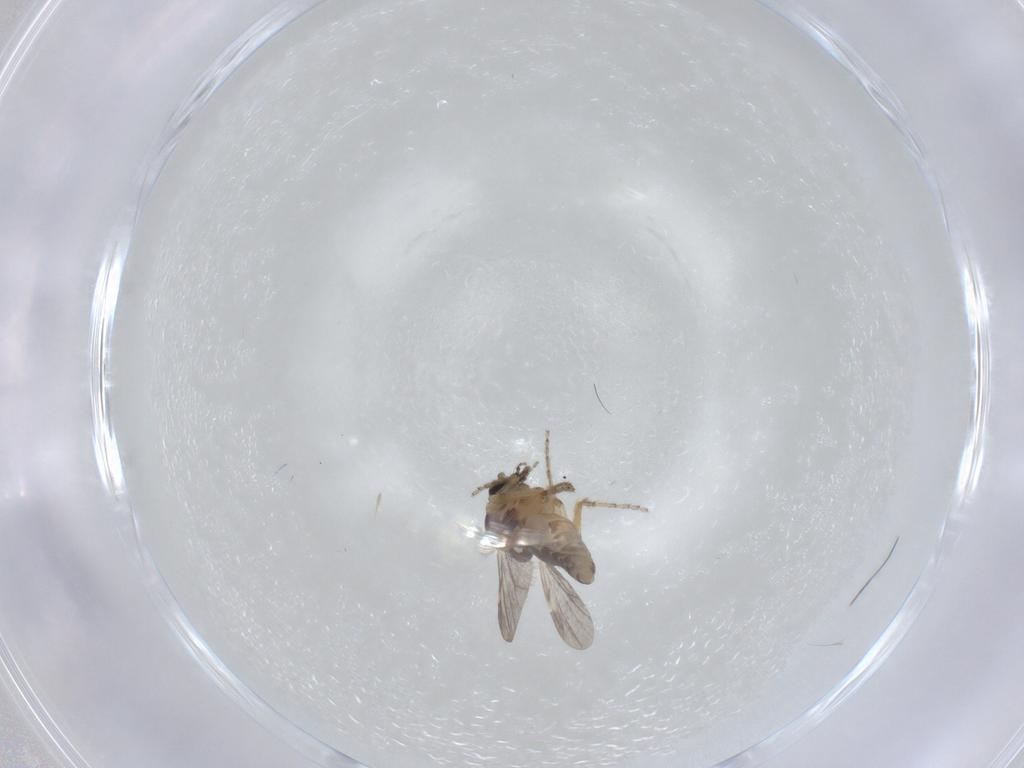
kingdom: Animalia
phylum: Arthropoda
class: Insecta
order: Diptera
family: Ceratopogonidae
